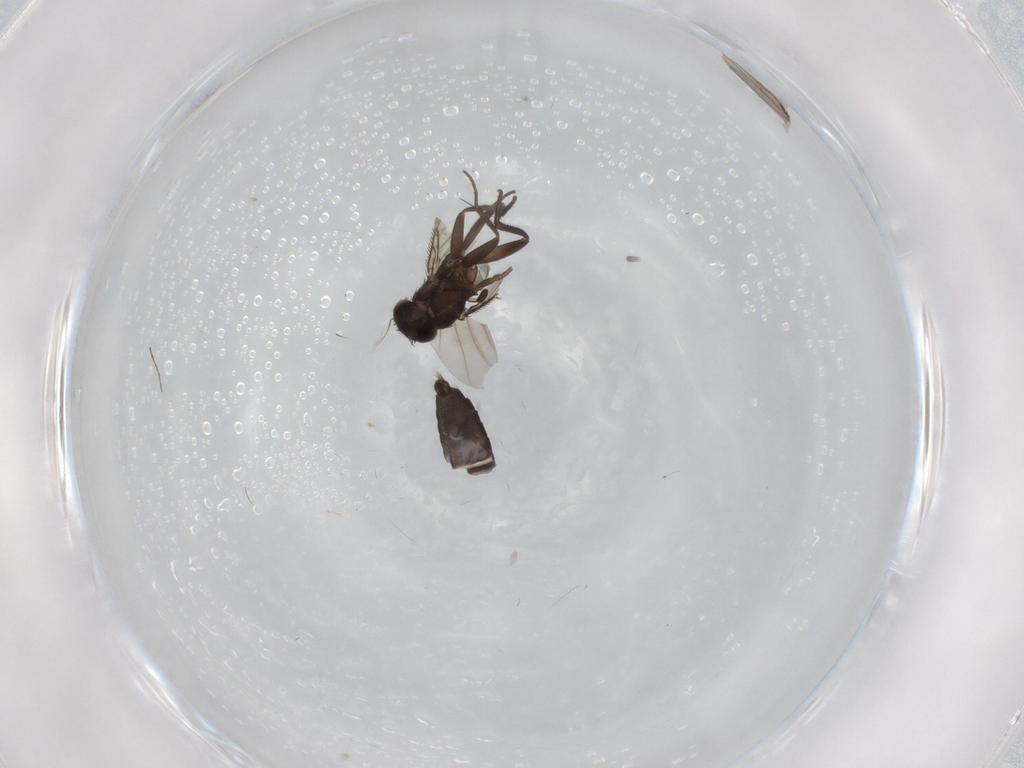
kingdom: Animalia
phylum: Arthropoda
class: Insecta
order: Diptera
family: Phoridae
